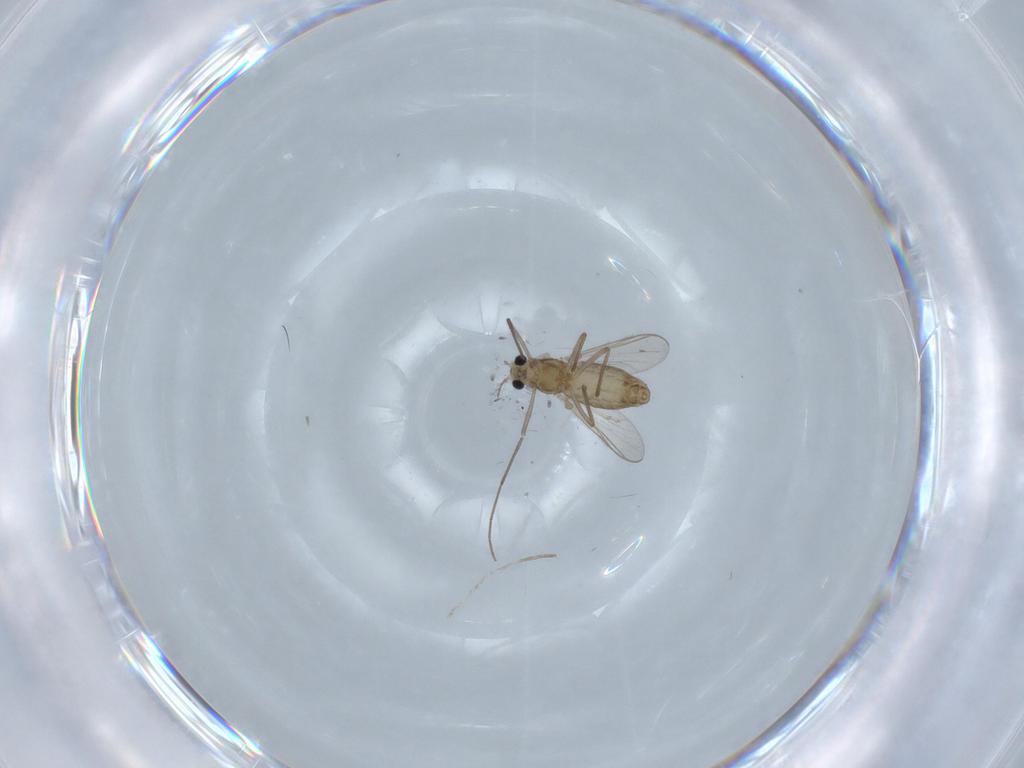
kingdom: Animalia
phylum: Arthropoda
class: Insecta
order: Diptera
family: Chironomidae
